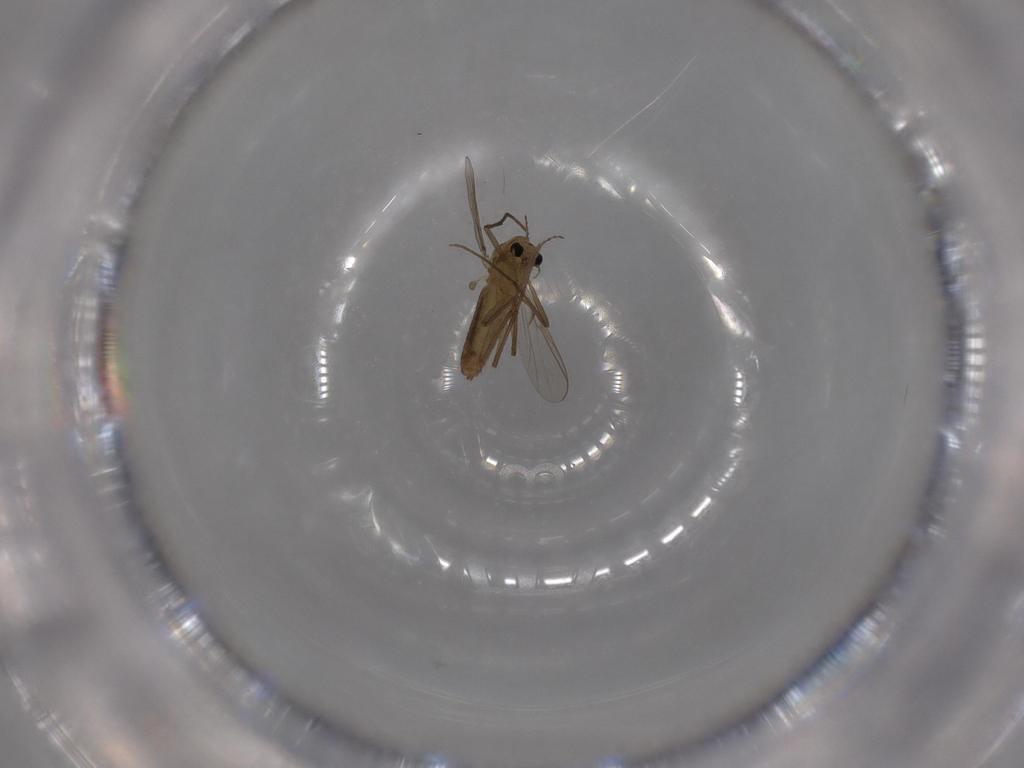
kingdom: Animalia
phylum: Arthropoda
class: Insecta
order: Diptera
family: Chironomidae
